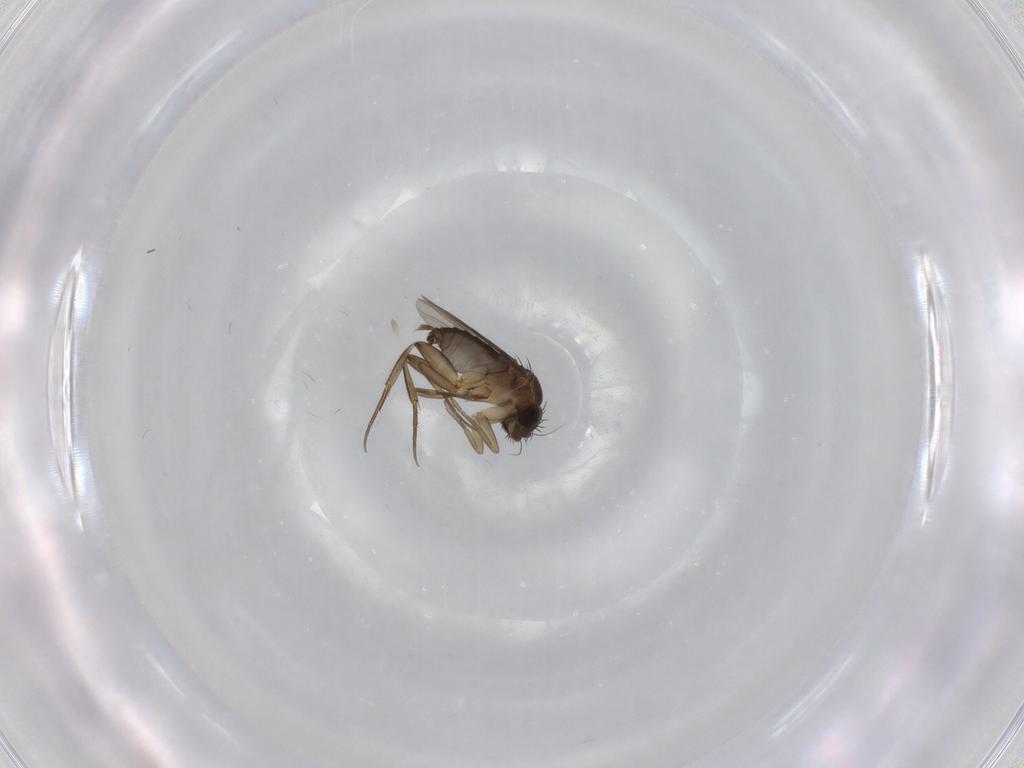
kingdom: Animalia
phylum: Arthropoda
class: Insecta
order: Diptera
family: Phoridae
